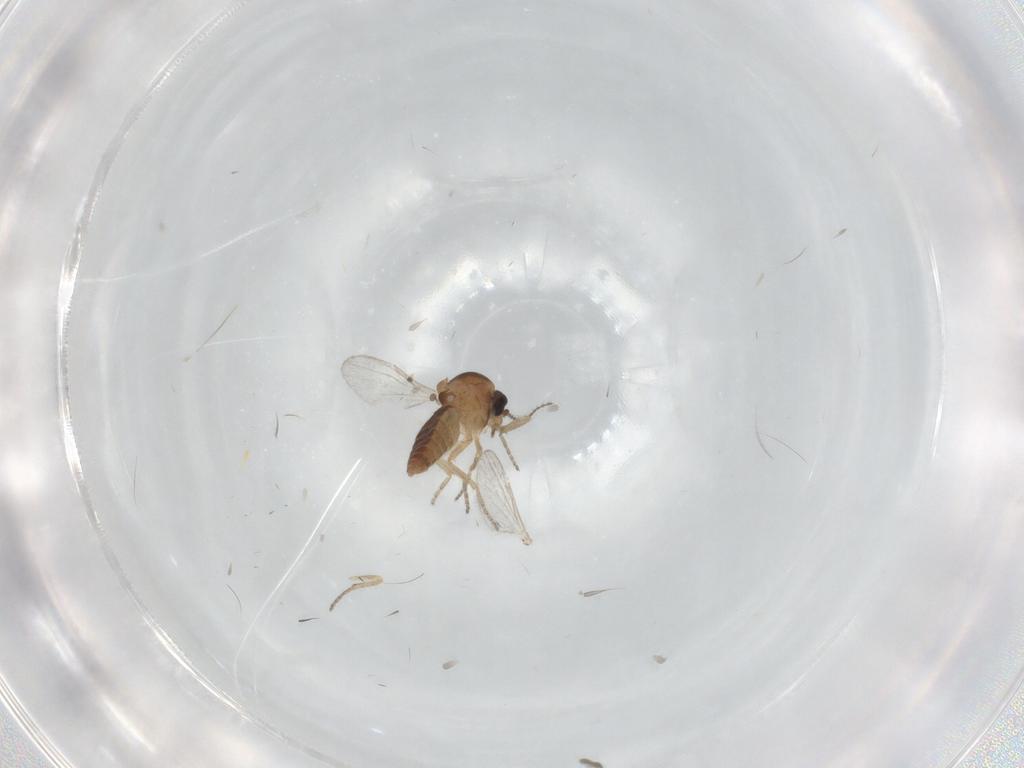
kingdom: Animalia
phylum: Arthropoda
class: Insecta
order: Diptera
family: Ceratopogonidae
